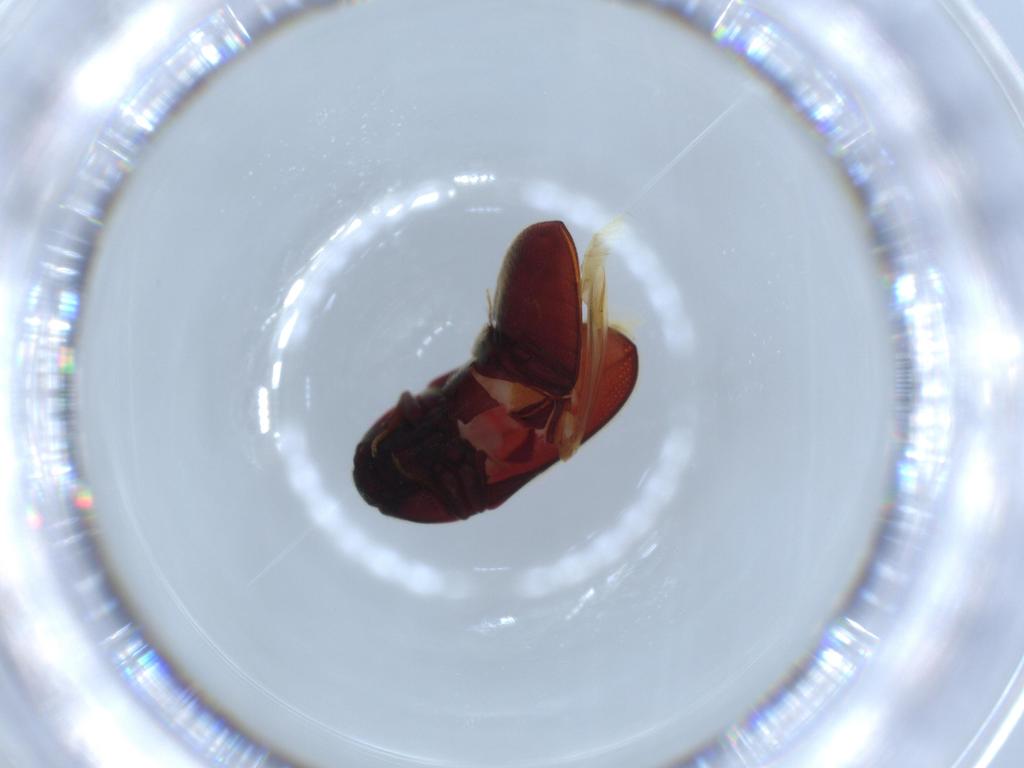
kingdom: Animalia
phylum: Arthropoda
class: Insecta
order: Coleoptera
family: Throscidae
